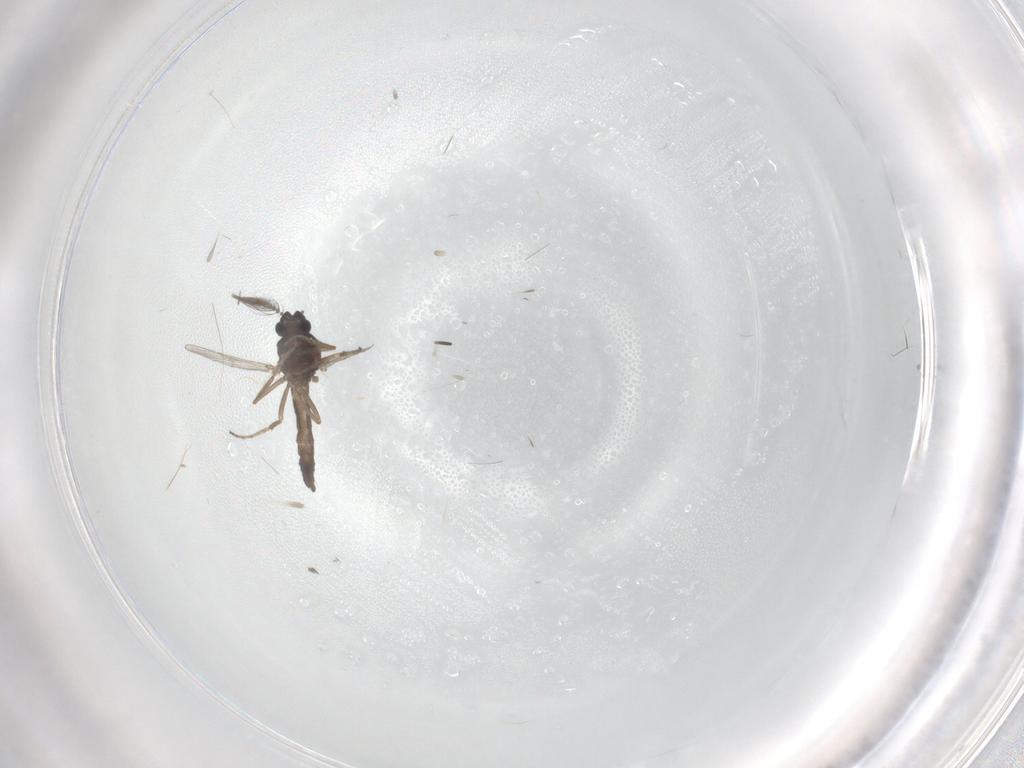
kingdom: Animalia
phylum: Arthropoda
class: Insecta
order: Diptera
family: Ceratopogonidae
